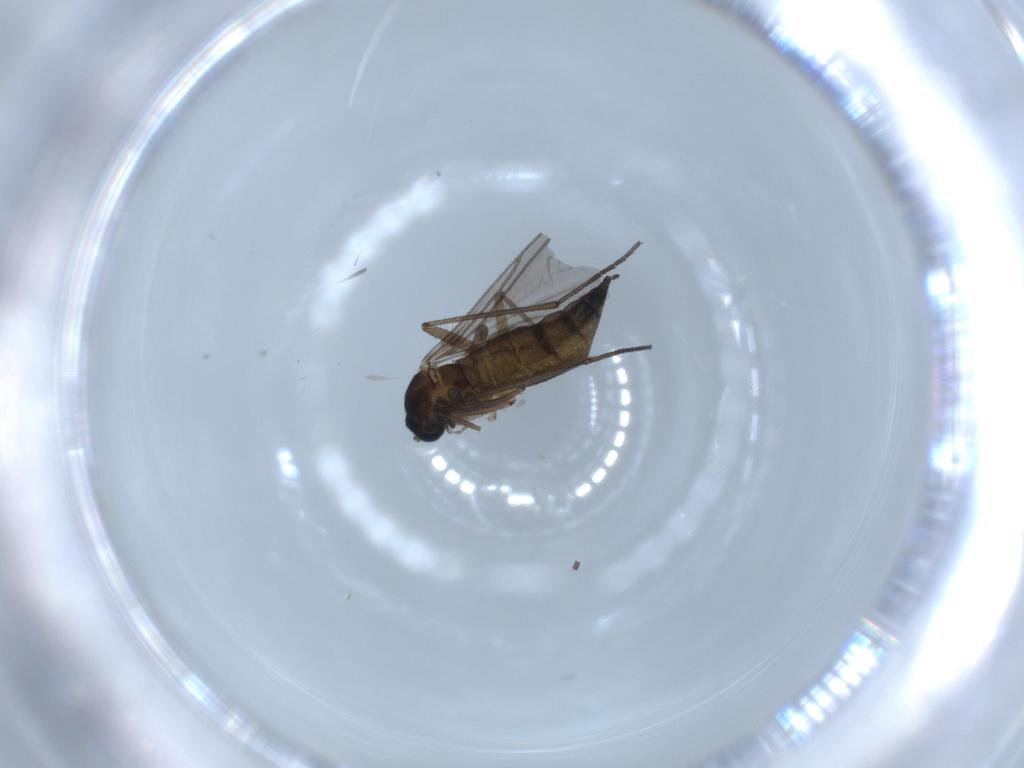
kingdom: Animalia
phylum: Arthropoda
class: Insecta
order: Diptera
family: Sciaridae
